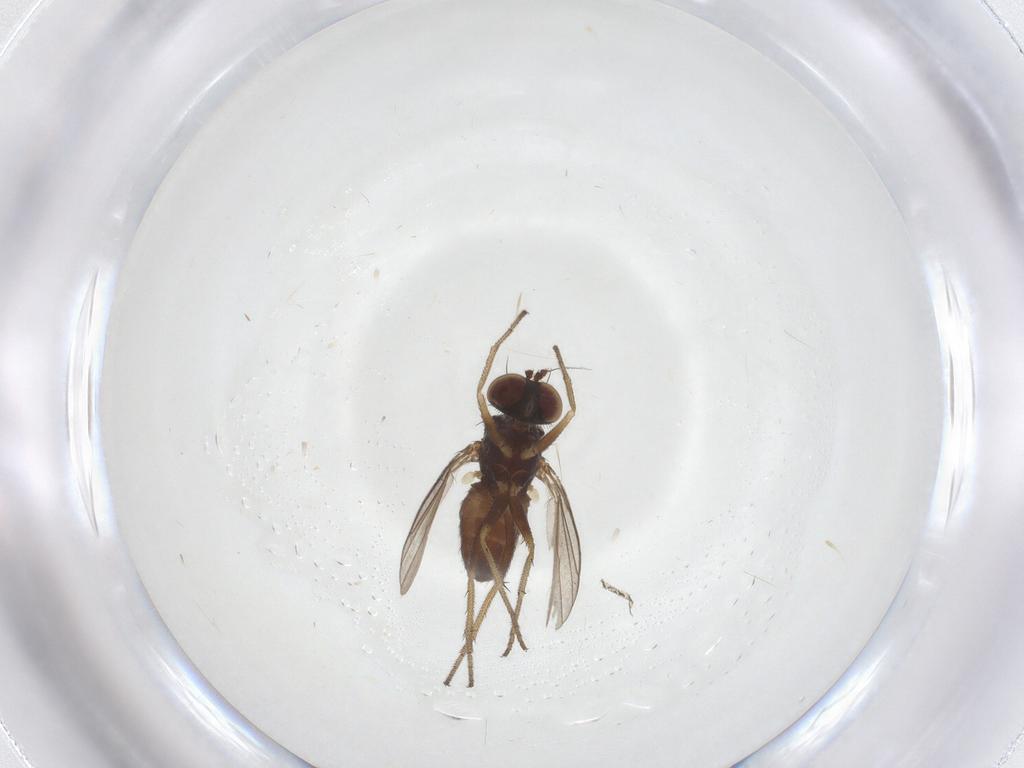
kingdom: Animalia
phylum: Arthropoda
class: Insecta
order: Diptera
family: Dolichopodidae
